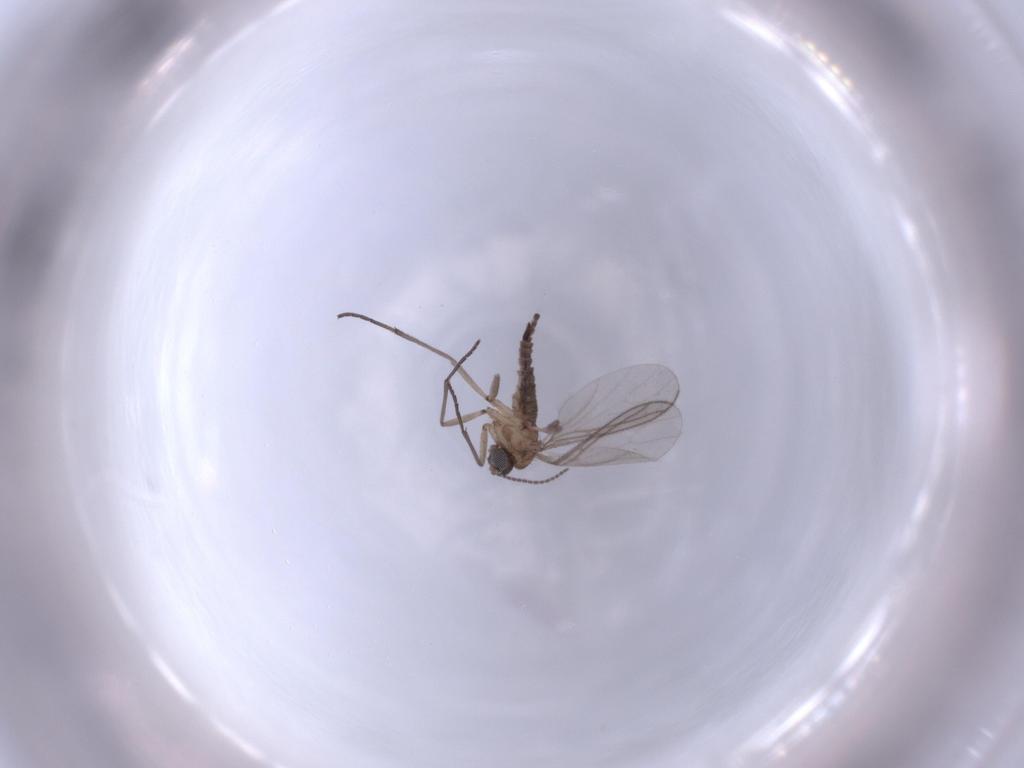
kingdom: Animalia
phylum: Arthropoda
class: Insecta
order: Diptera
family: Sciaridae
